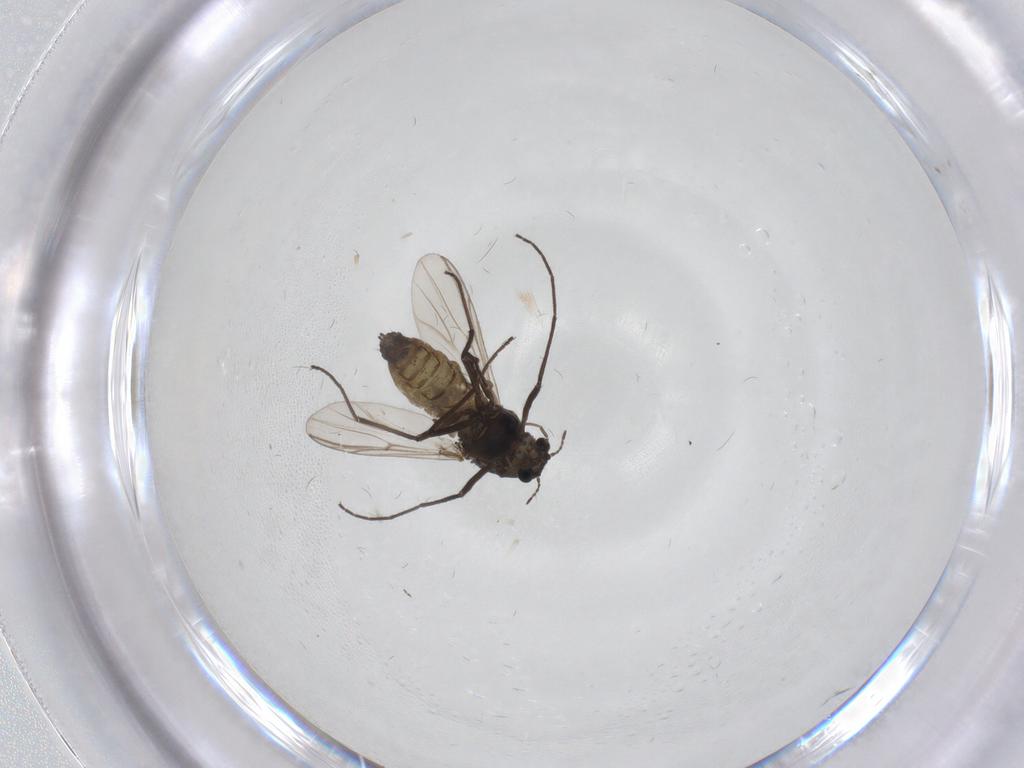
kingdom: Animalia
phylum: Arthropoda
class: Insecta
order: Diptera
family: Chironomidae
